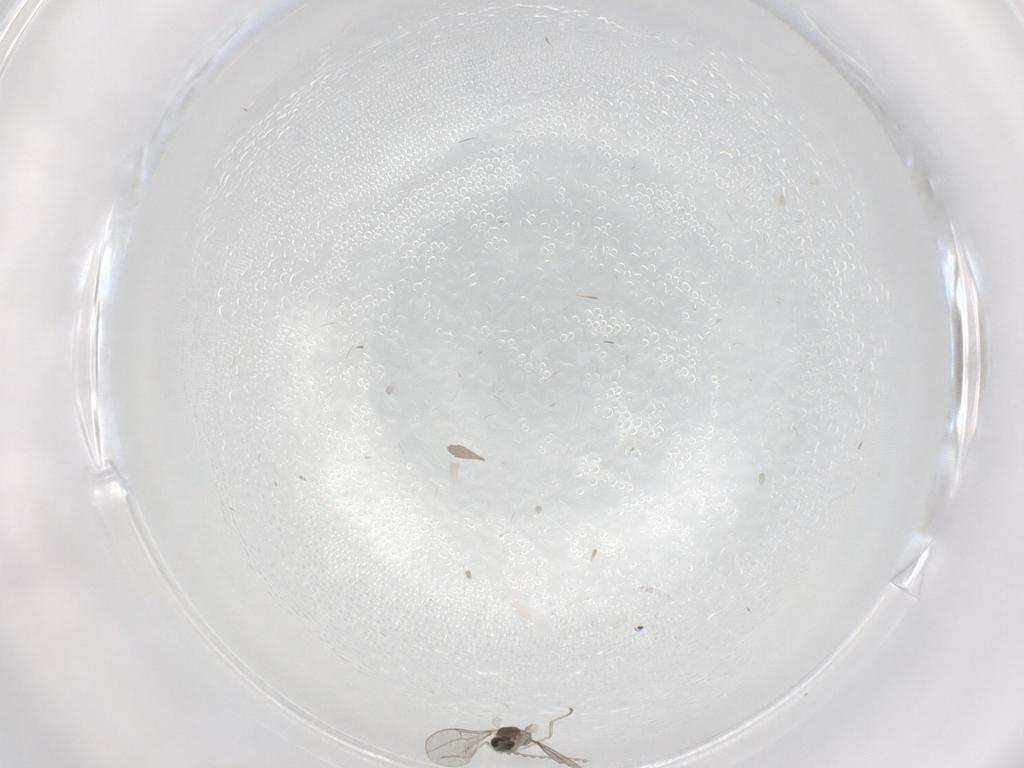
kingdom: Animalia
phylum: Arthropoda
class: Insecta
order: Diptera
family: Cecidomyiidae
